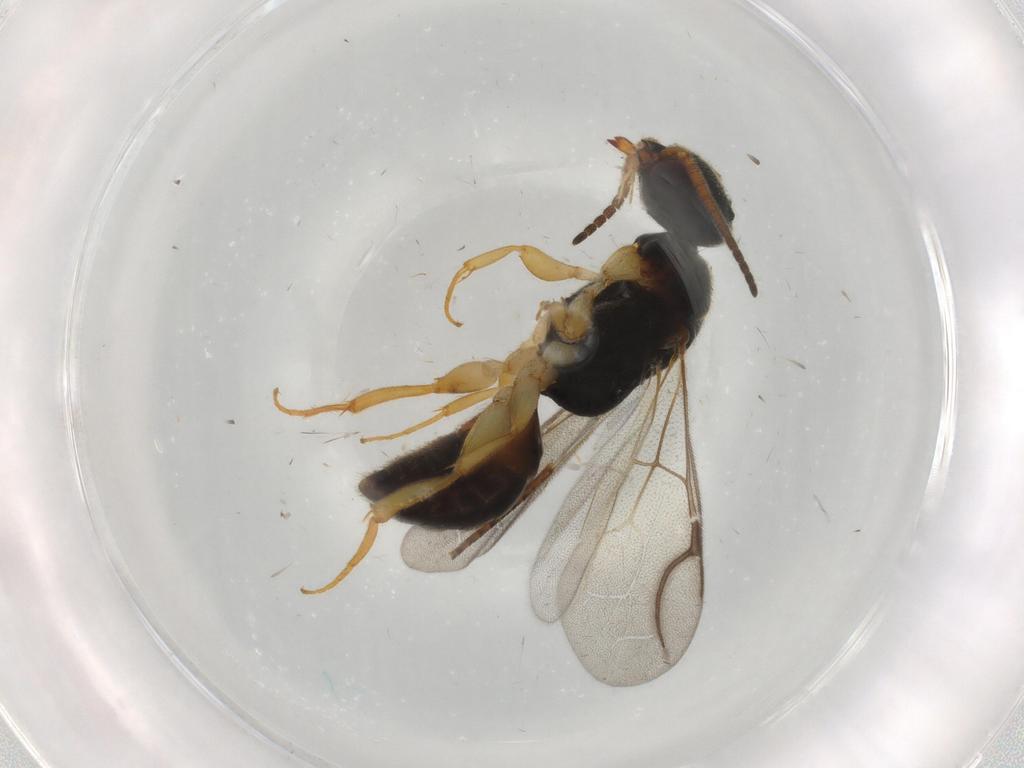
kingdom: Animalia
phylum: Arthropoda
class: Insecta
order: Hymenoptera
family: Bethylidae
